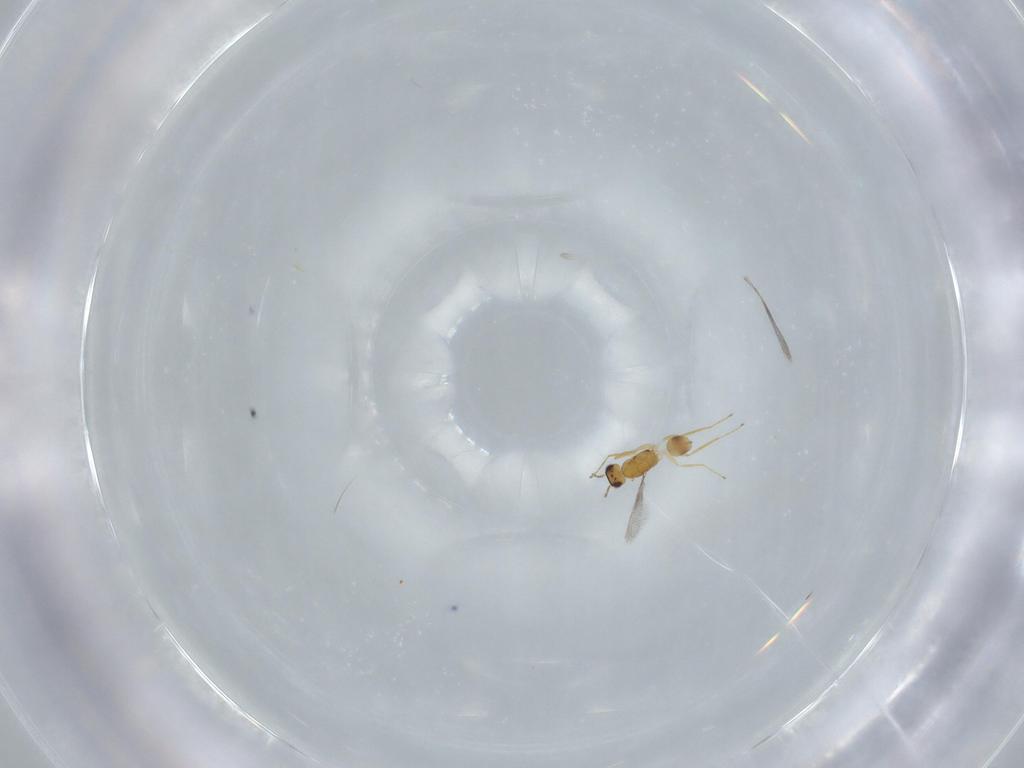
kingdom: Animalia
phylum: Arthropoda
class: Insecta
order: Hymenoptera
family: Mymaridae
